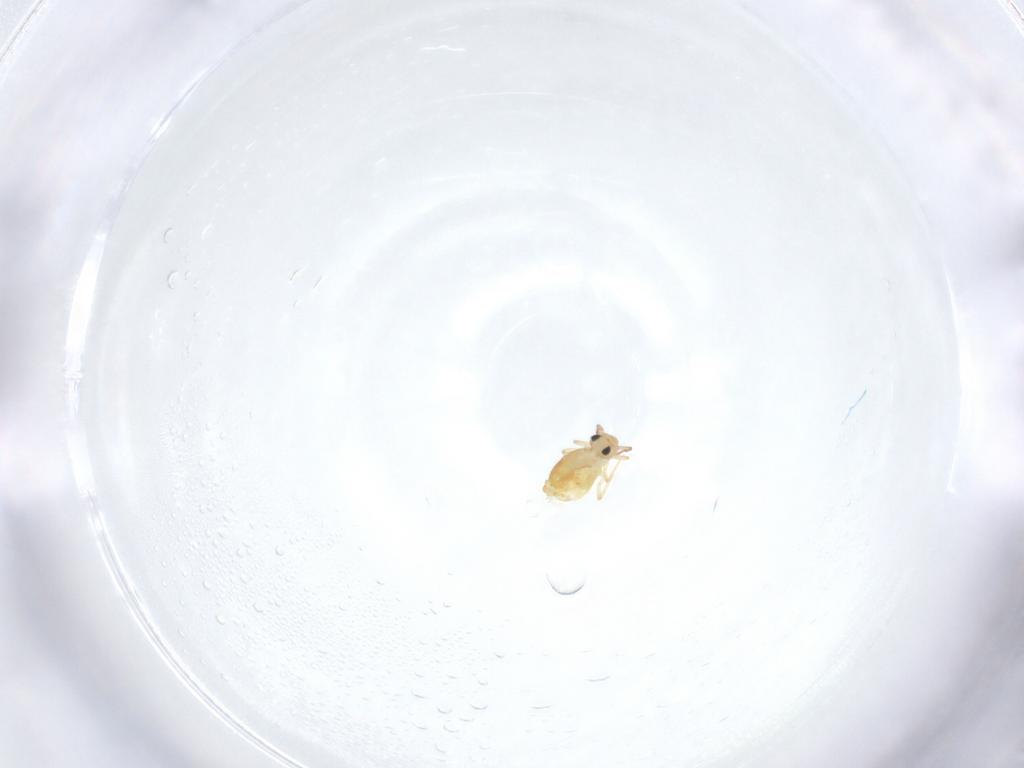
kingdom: Animalia
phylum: Arthropoda
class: Collembola
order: Symphypleona
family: Bourletiellidae
